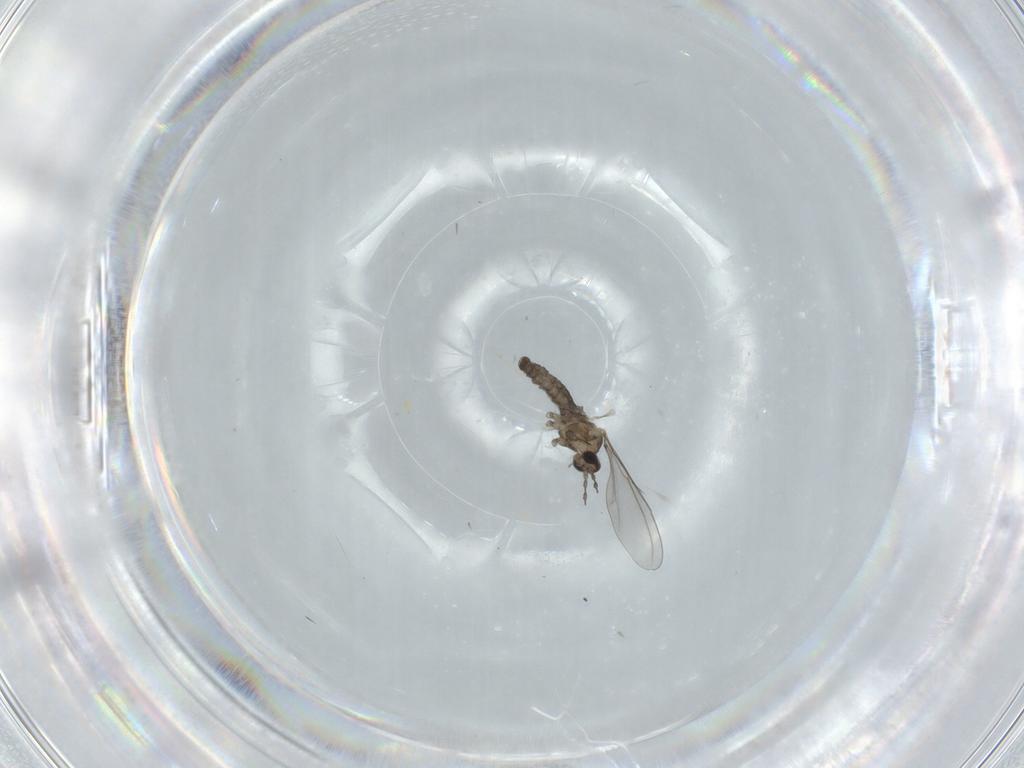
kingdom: Animalia
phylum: Arthropoda
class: Insecta
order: Diptera
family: Cecidomyiidae
